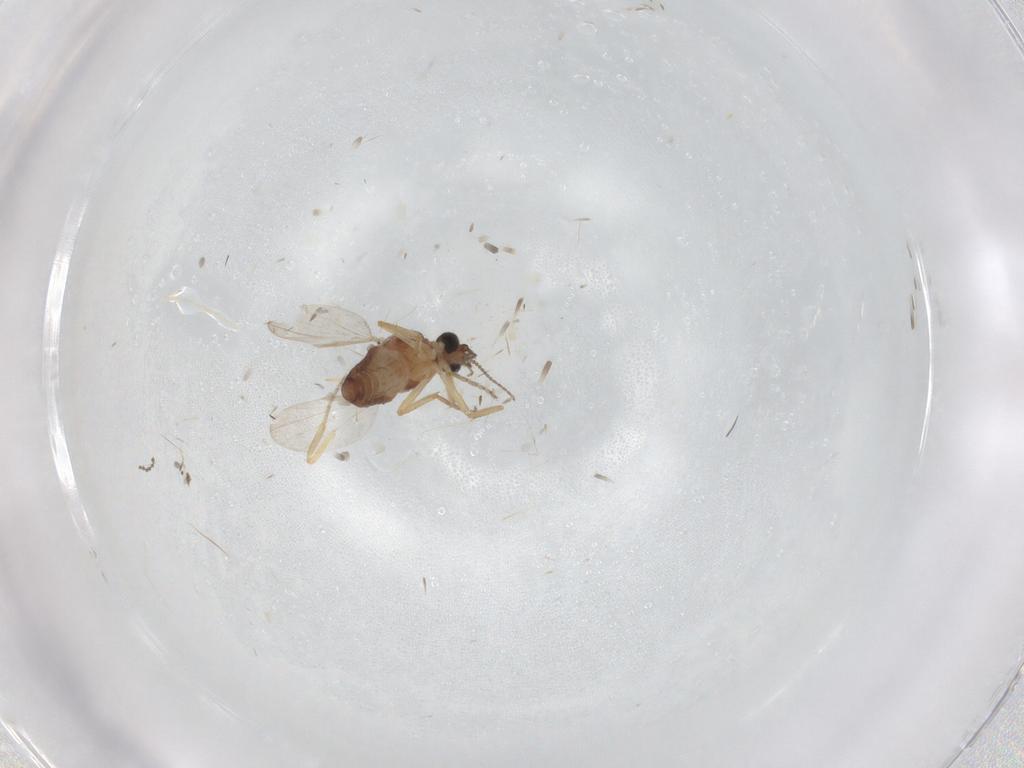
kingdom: Animalia
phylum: Arthropoda
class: Insecta
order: Diptera
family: Ceratopogonidae
